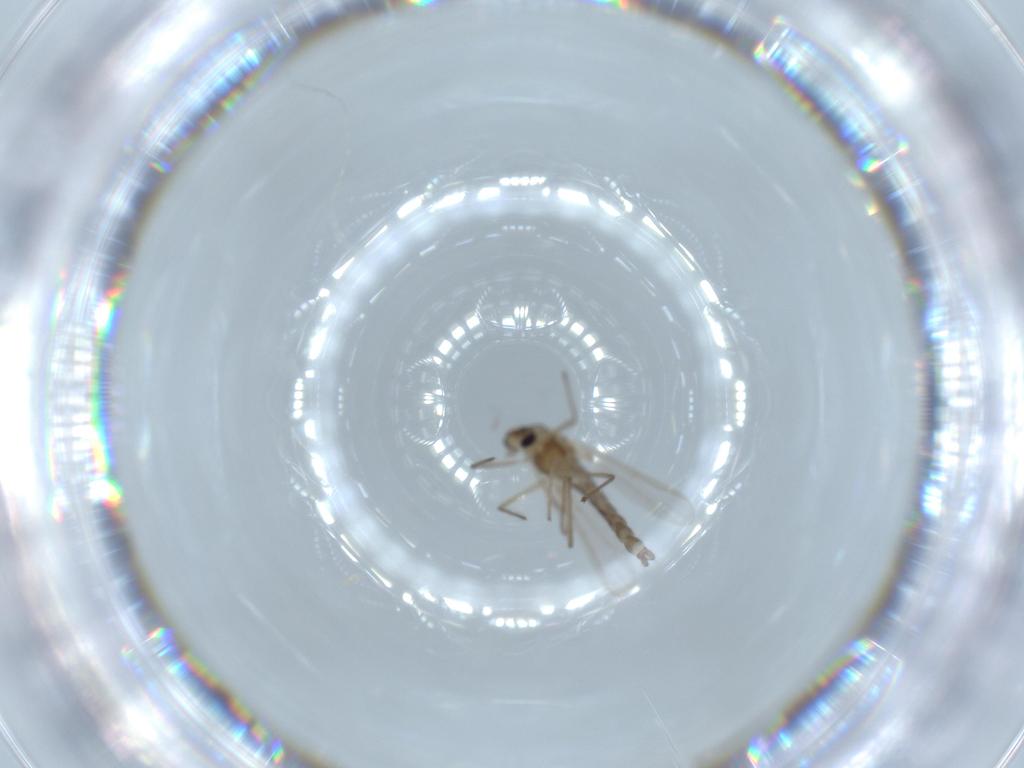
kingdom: Animalia
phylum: Arthropoda
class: Insecta
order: Diptera
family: Chironomidae
